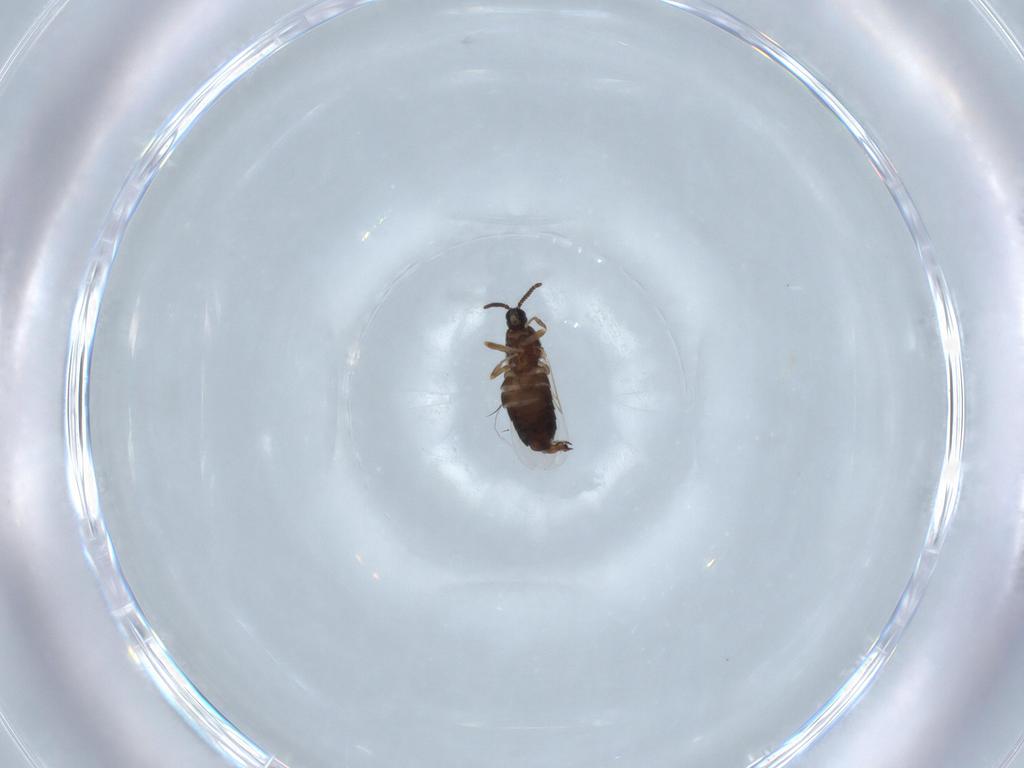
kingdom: Animalia
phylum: Arthropoda
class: Insecta
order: Diptera
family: Scatopsidae
